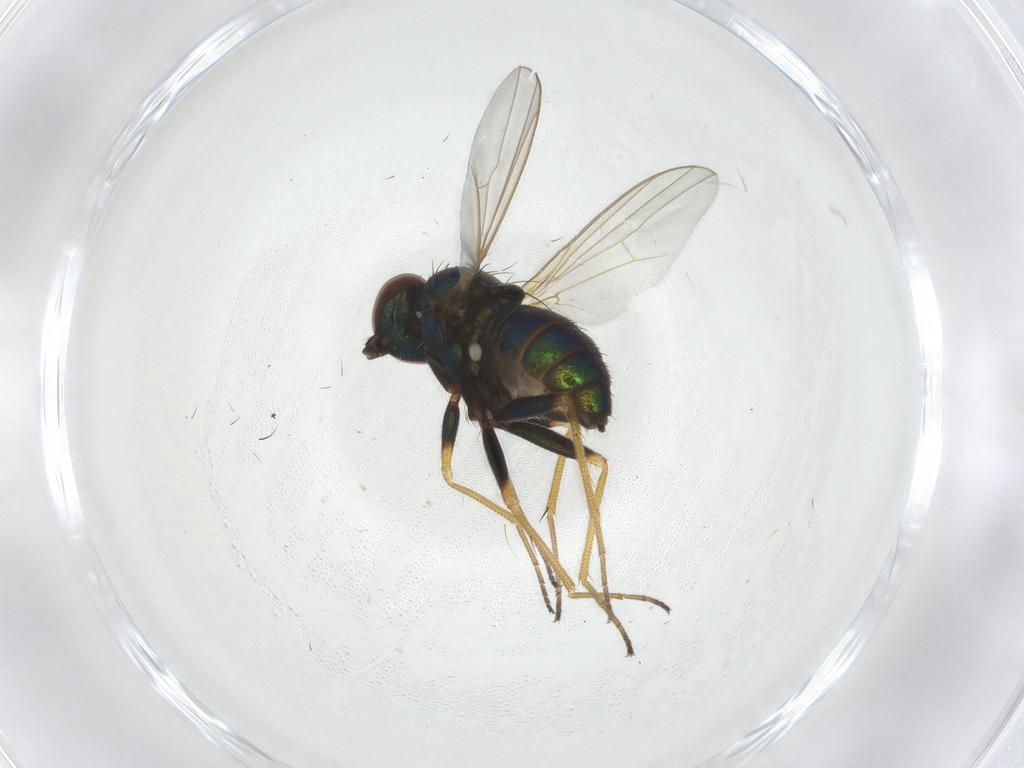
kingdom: Animalia
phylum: Arthropoda
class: Insecta
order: Diptera
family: Dolichopodidae
